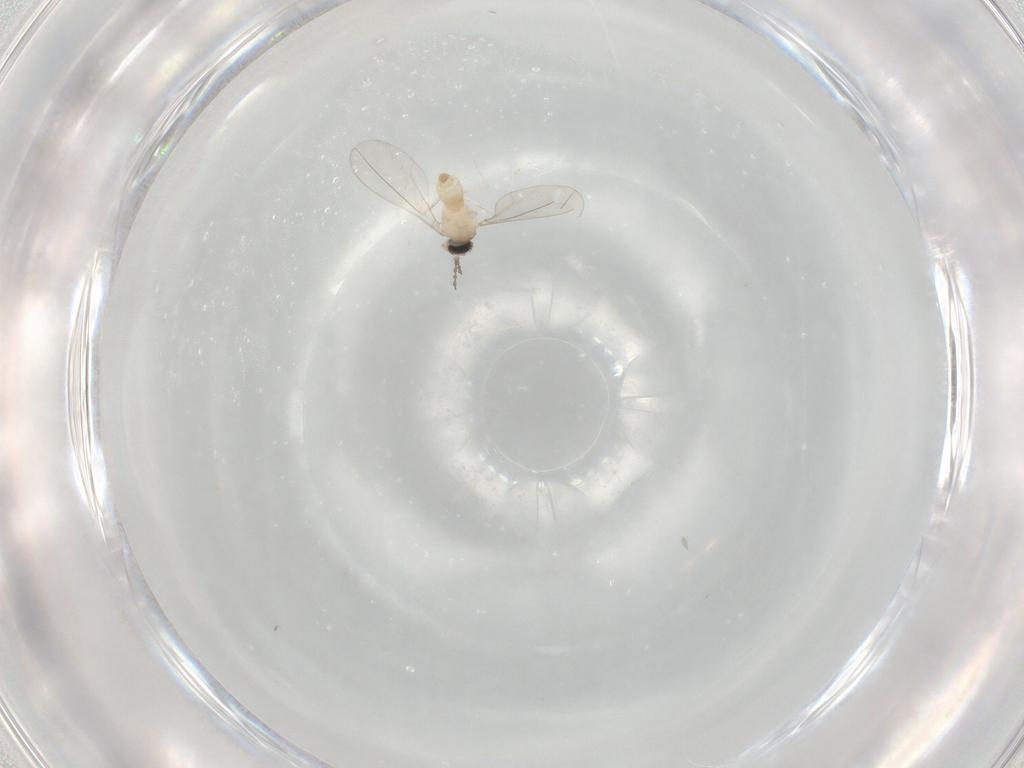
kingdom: Animalia
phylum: Arthropoda
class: Insecta
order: Diptera
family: Cecidomyiidae
